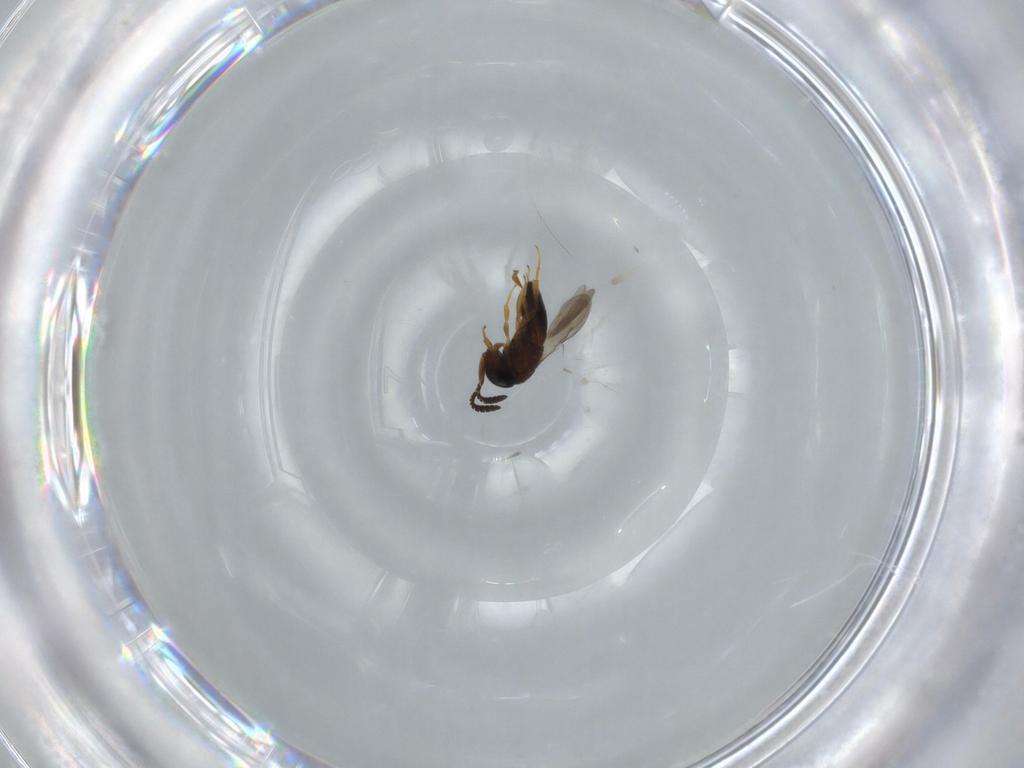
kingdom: Animalia
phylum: Arthropoda
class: Insecta
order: Hymenoptera
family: Scelionidae
